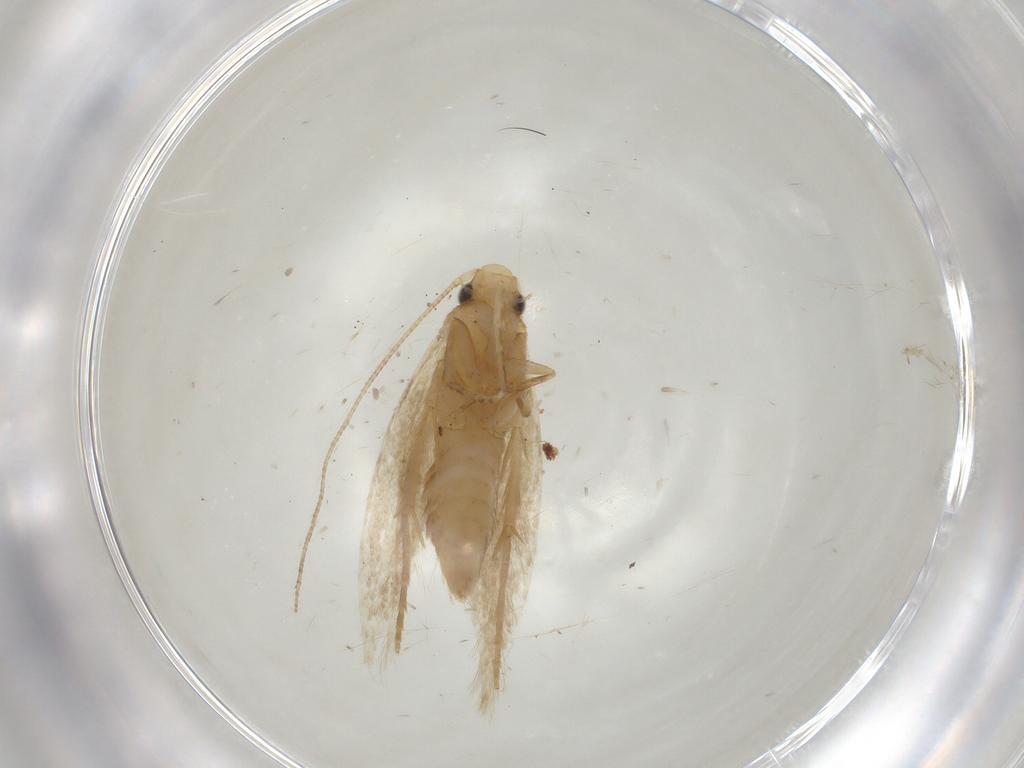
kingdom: Animalia
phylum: Arthropoda
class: Insecta
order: Lepidoptera
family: Tineidae
